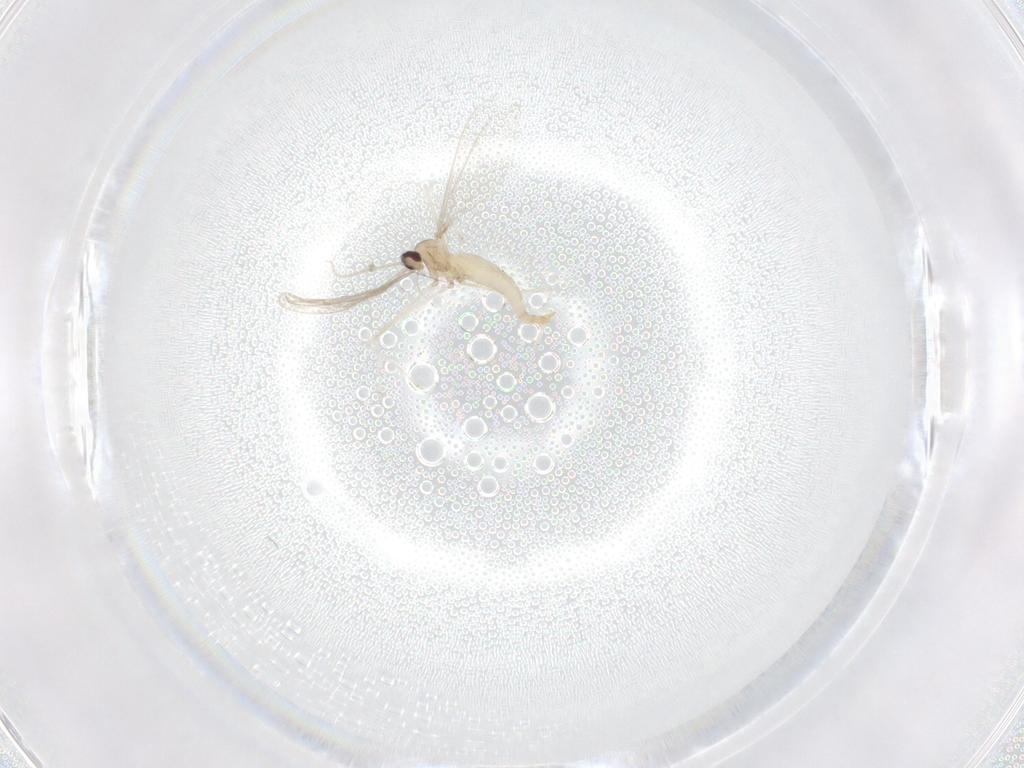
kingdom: Animalia
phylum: Arthropoda
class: Insecta
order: Diptera
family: Cecidomyiidae
